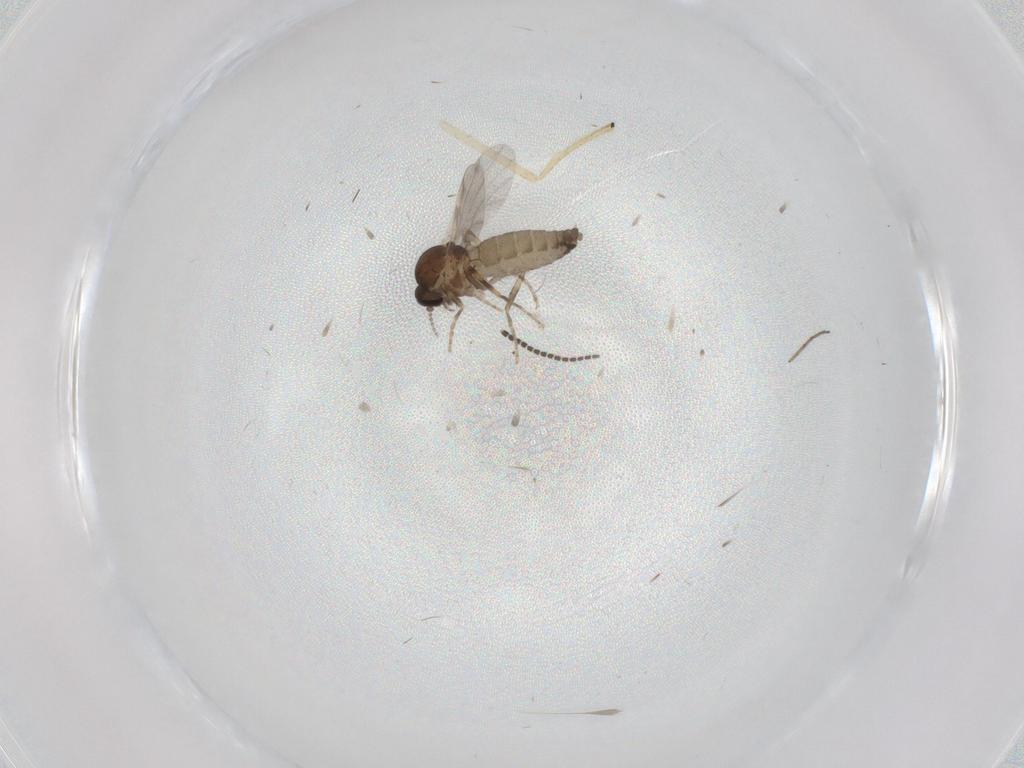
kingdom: Animalia
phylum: Arthropoda
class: Insecta
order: Diptera
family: Ceratopogonidae
